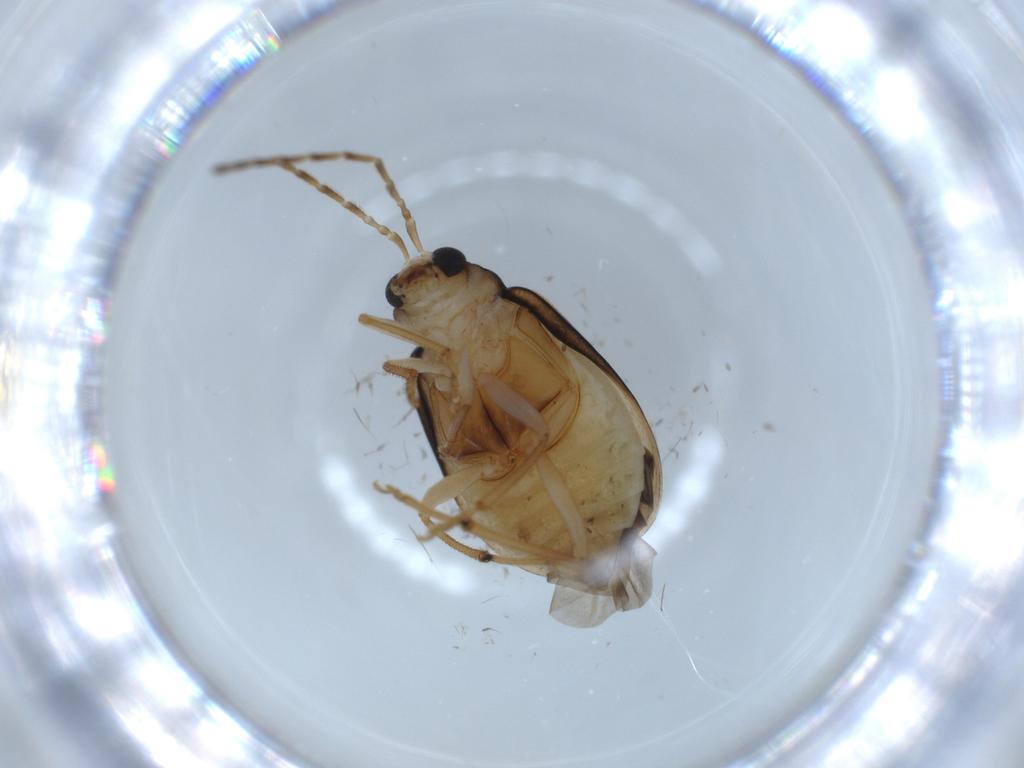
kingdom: Animalia
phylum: Arthropoda
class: Insecta
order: Coleoptera
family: Chrysomelidae
